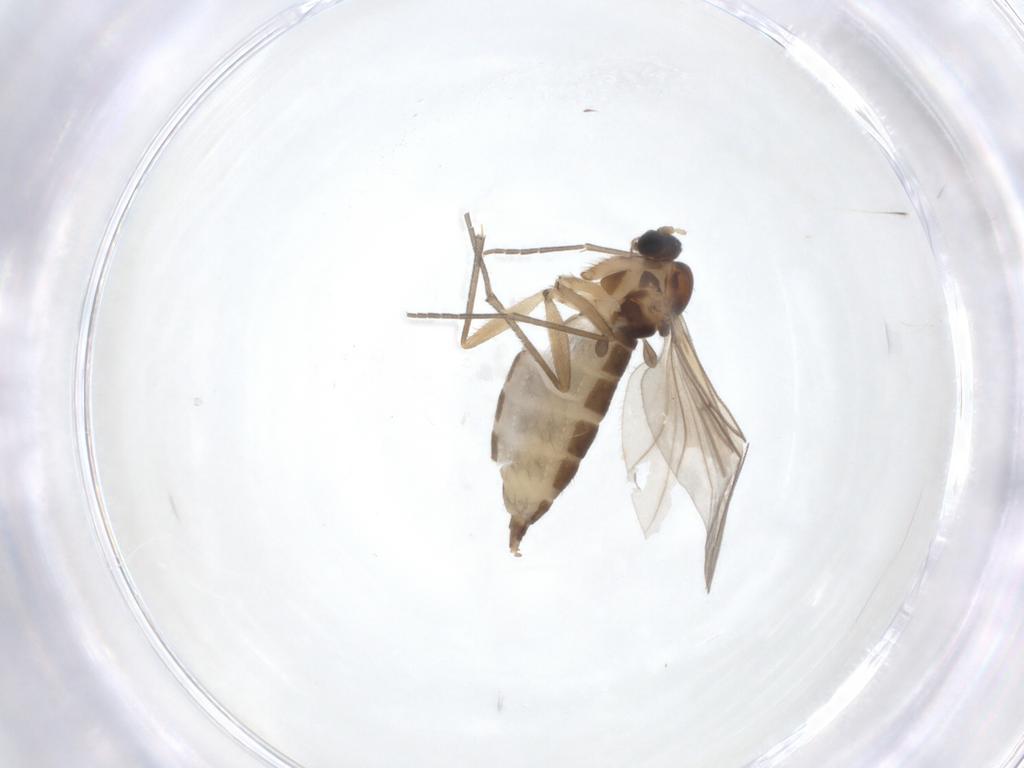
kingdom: Animalia
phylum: Arthropoda
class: Insecta
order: Diptera
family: Sciaridae
